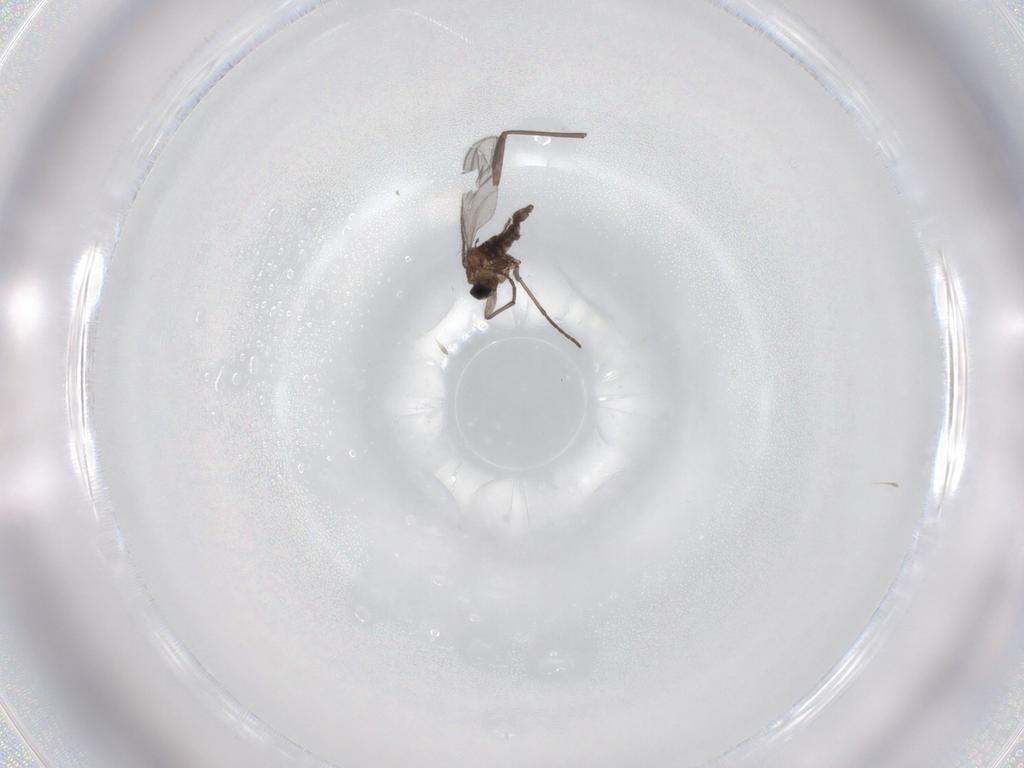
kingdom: Animalia
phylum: Arthropoda
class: Insecta
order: Diptera
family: Sciaridae
